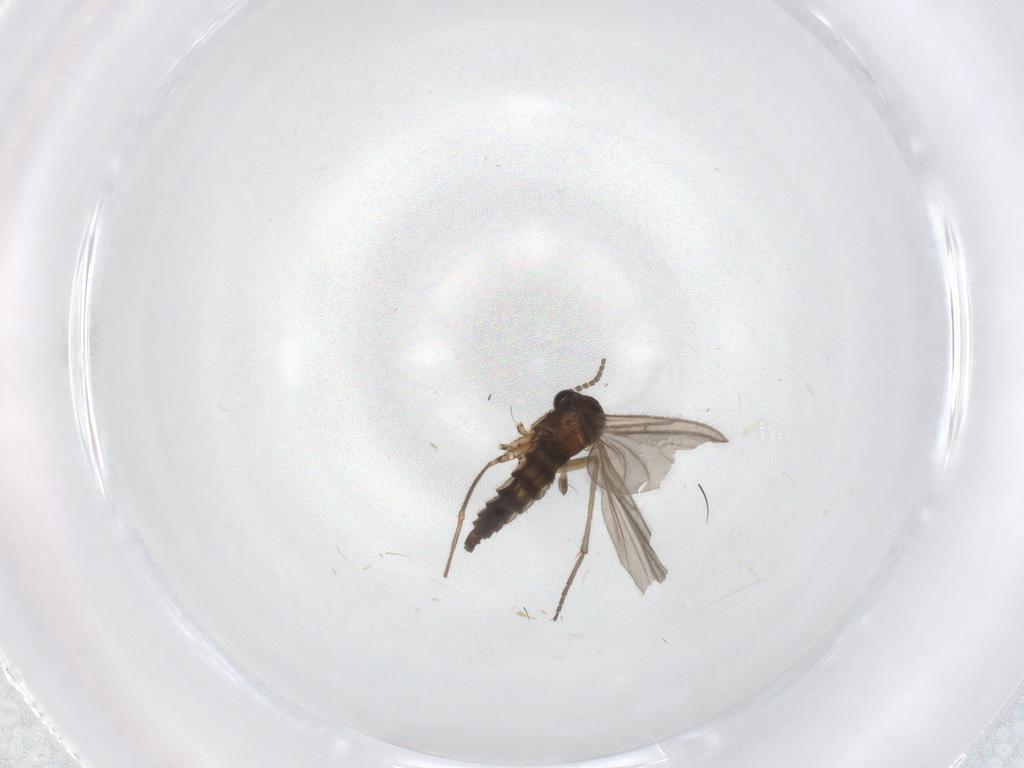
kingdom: Animalia
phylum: Arthropoda
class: Insecta
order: Diptera
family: Sciaridae
